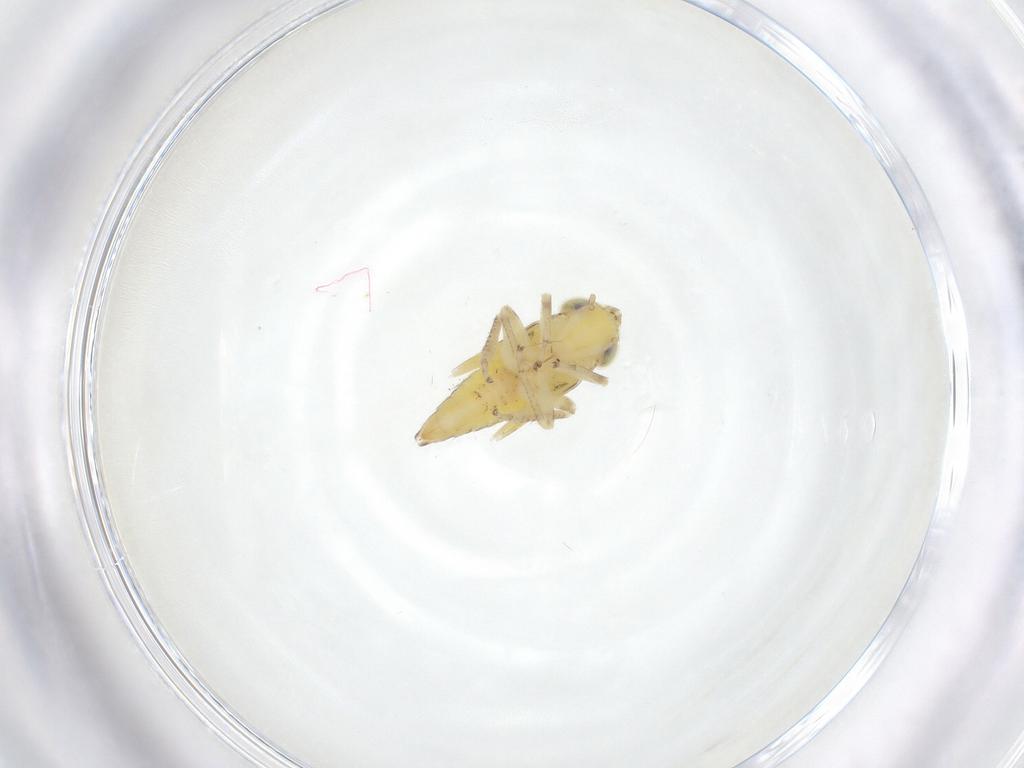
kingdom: Animalia
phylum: Arthropoda
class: Insecta
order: Hemiptera
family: Cicadellidae
